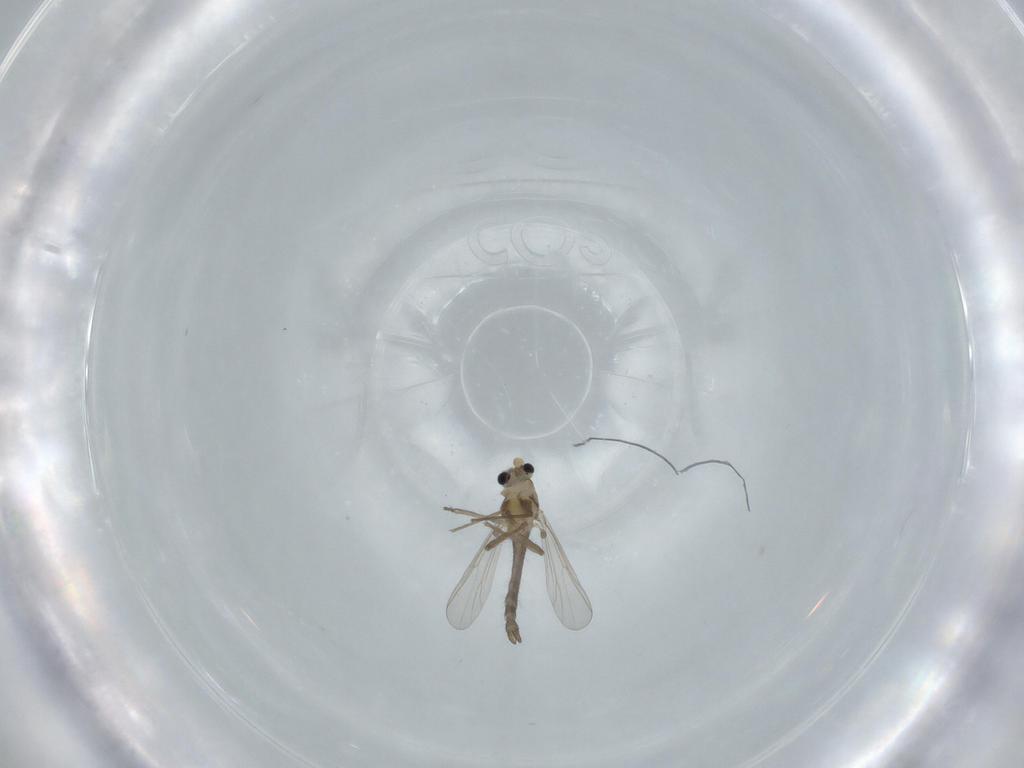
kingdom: Animalia
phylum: Arthropoda
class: Insecta
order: Diptera
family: Chironomidae
